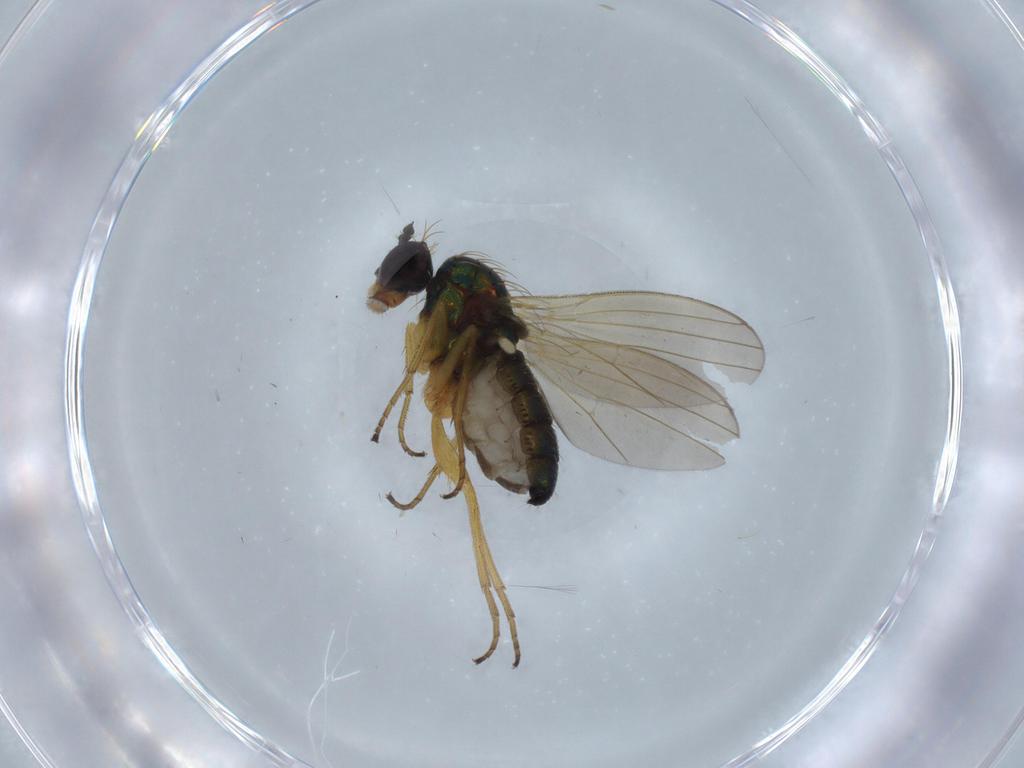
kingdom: Animalia
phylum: Arthropoda
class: Insecta
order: Diptera
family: Dolichopodidae
